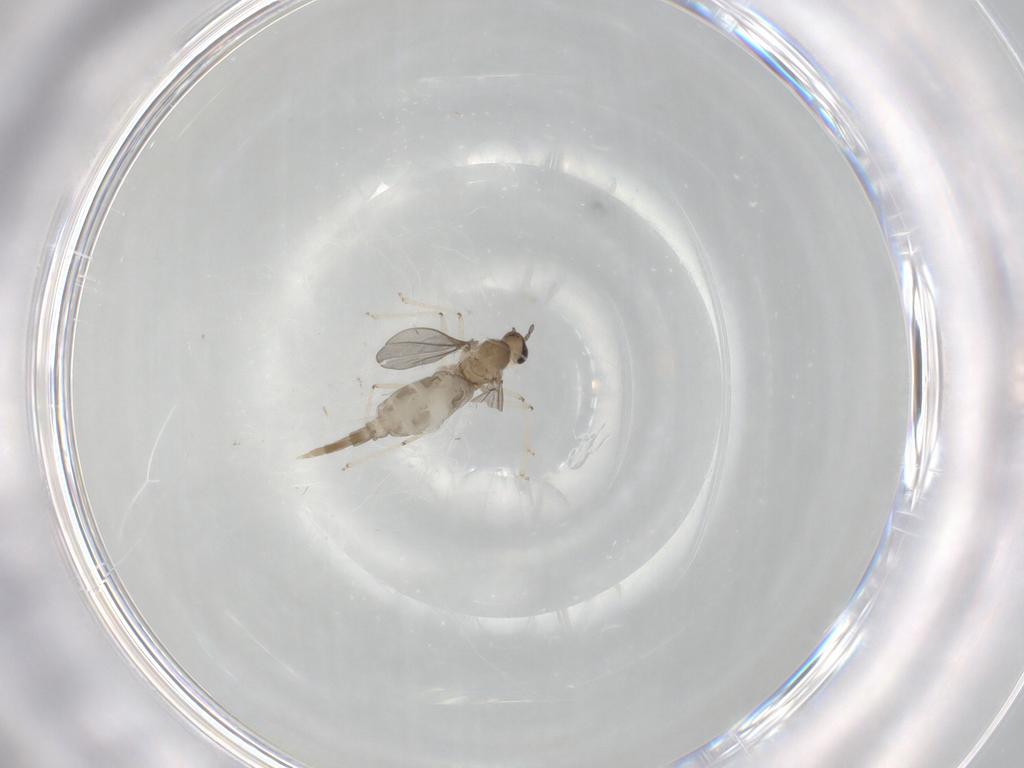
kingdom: Animalia
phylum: Arthropoda
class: Insecta
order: Diptera
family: Cecidomyiidae
